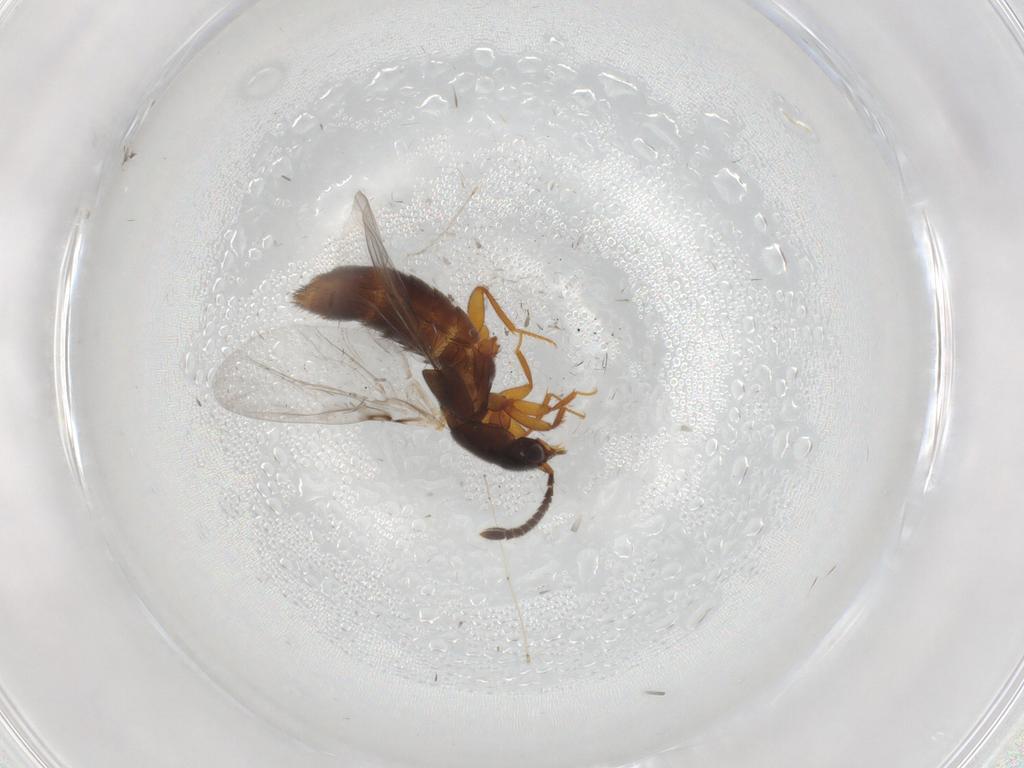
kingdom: Animalia
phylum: Arthropoda
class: Insecta
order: Coleoptera
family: Staphylinidae
